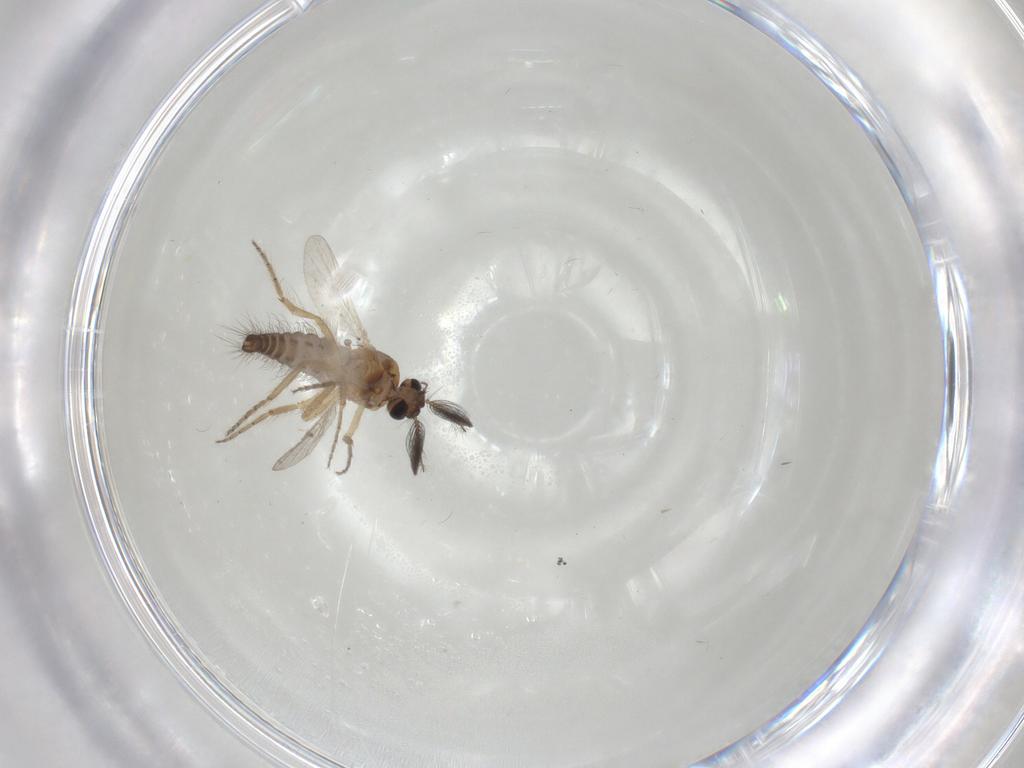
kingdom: Animalia
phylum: Arthropoda
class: Insecta
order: Diptera
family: Ceratopogonidae
